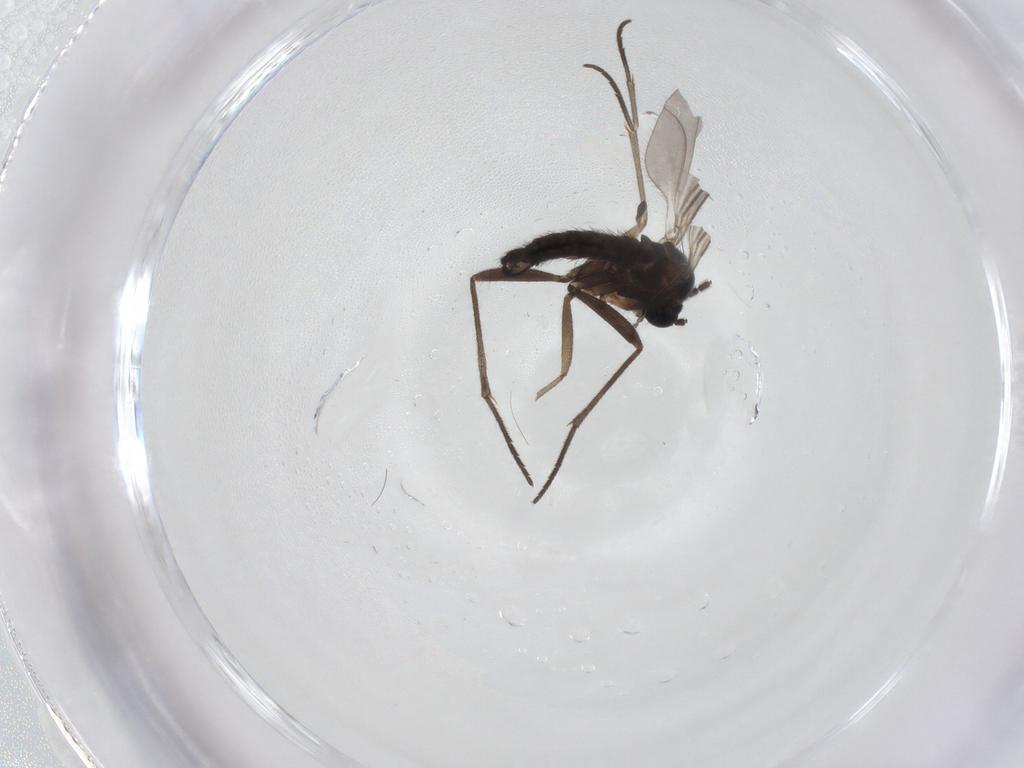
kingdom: Animalia
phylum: Arthropoda
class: Insecta
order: Diptera
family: Sciaridae
